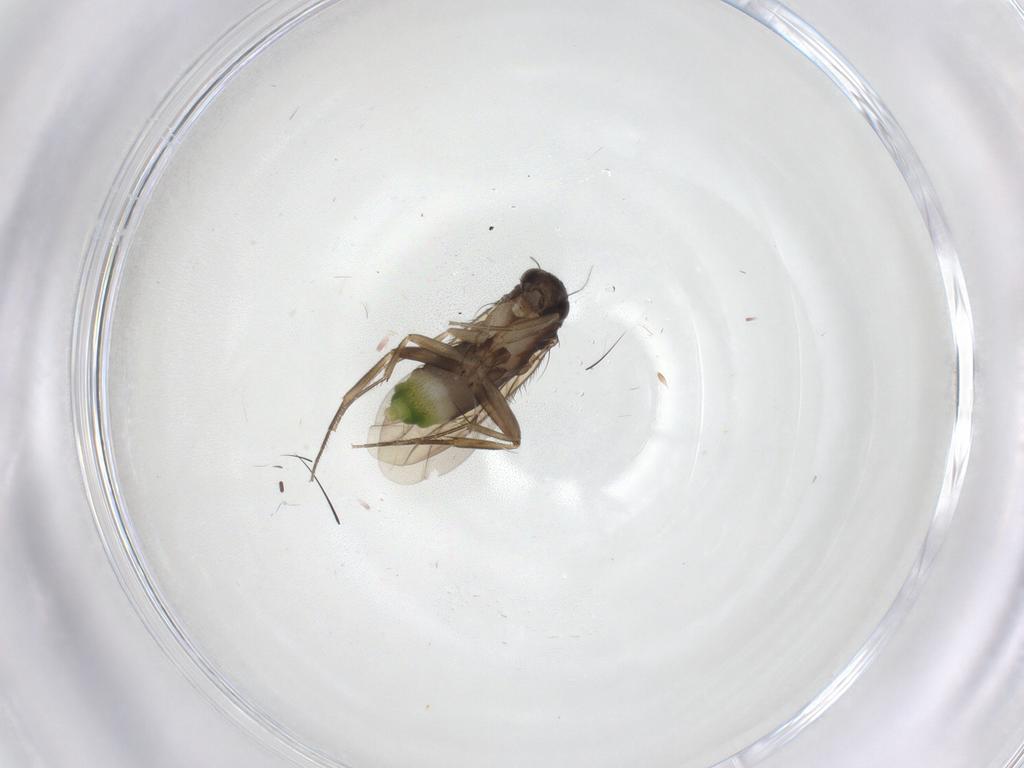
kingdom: Animalia
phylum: Arthropoda
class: Insecta
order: Diptera
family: Phoridae
